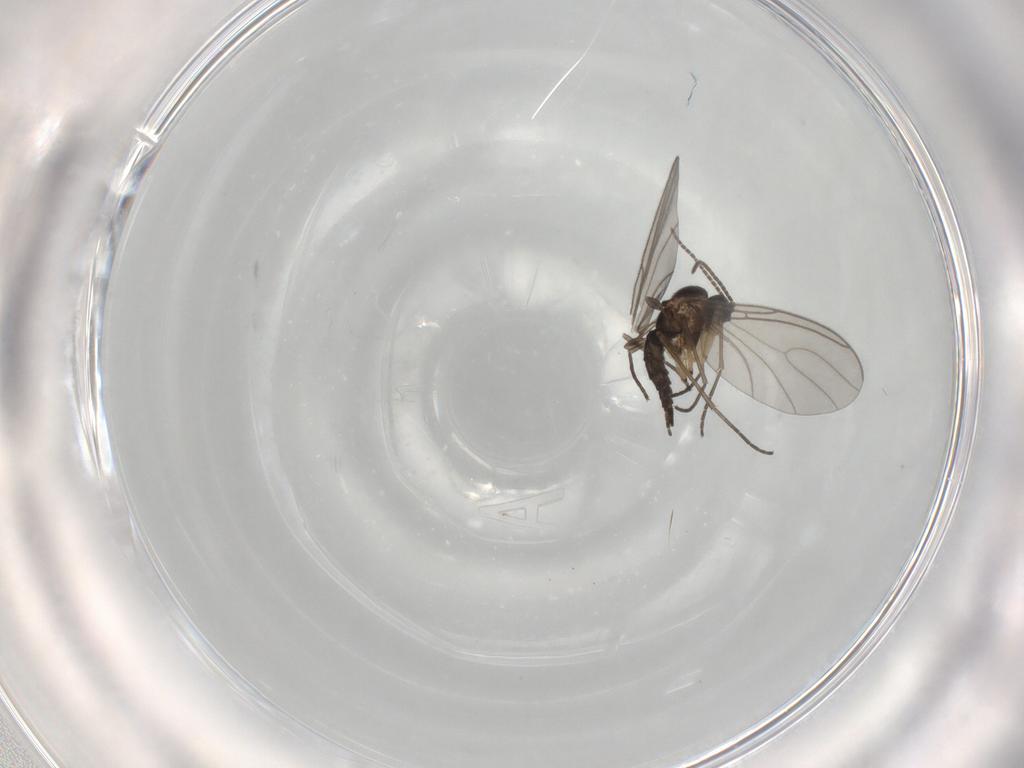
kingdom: Animalia
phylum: Arthropoda
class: Insecta
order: Diptera
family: Sciaridae
